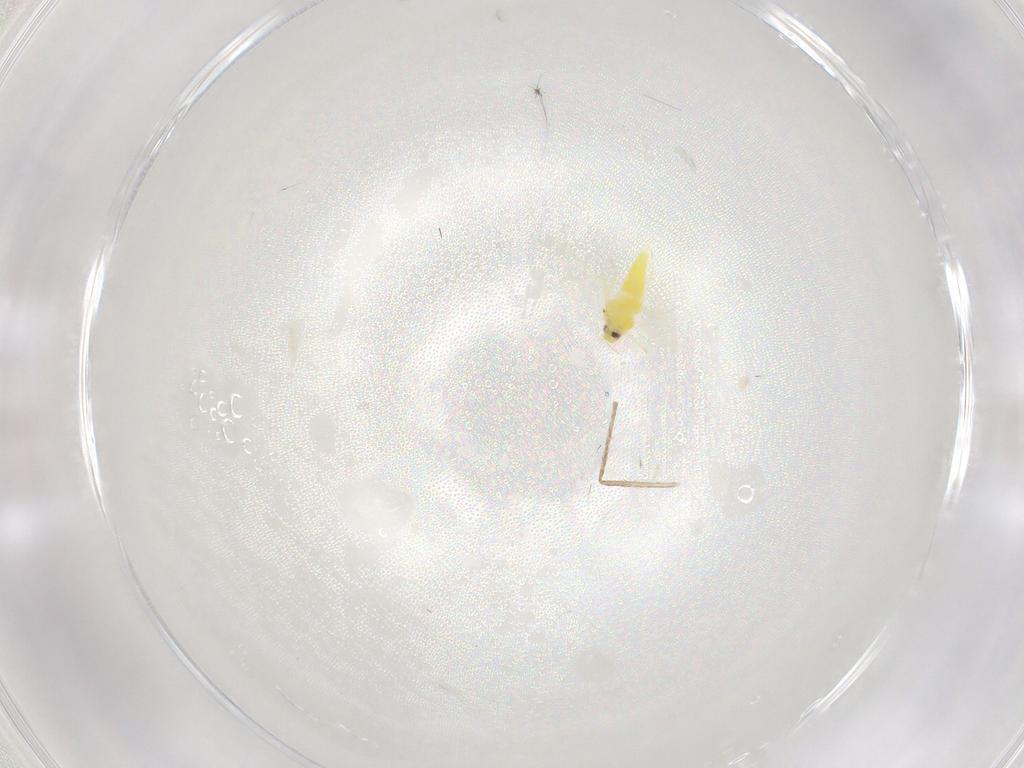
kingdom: Animalia
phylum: Arthropoda
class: Insecta
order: Hemiptera
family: Aleyrodidae
